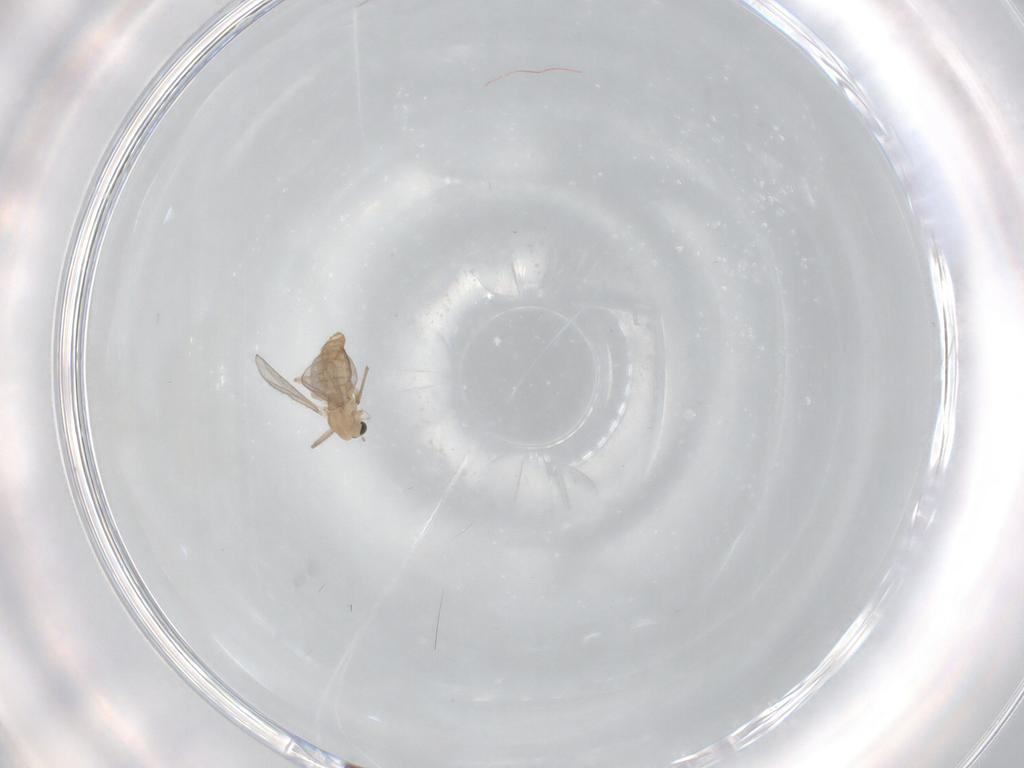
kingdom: Animalia
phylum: Arthropoda
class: Insecta
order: Diptera
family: Chironomidae
